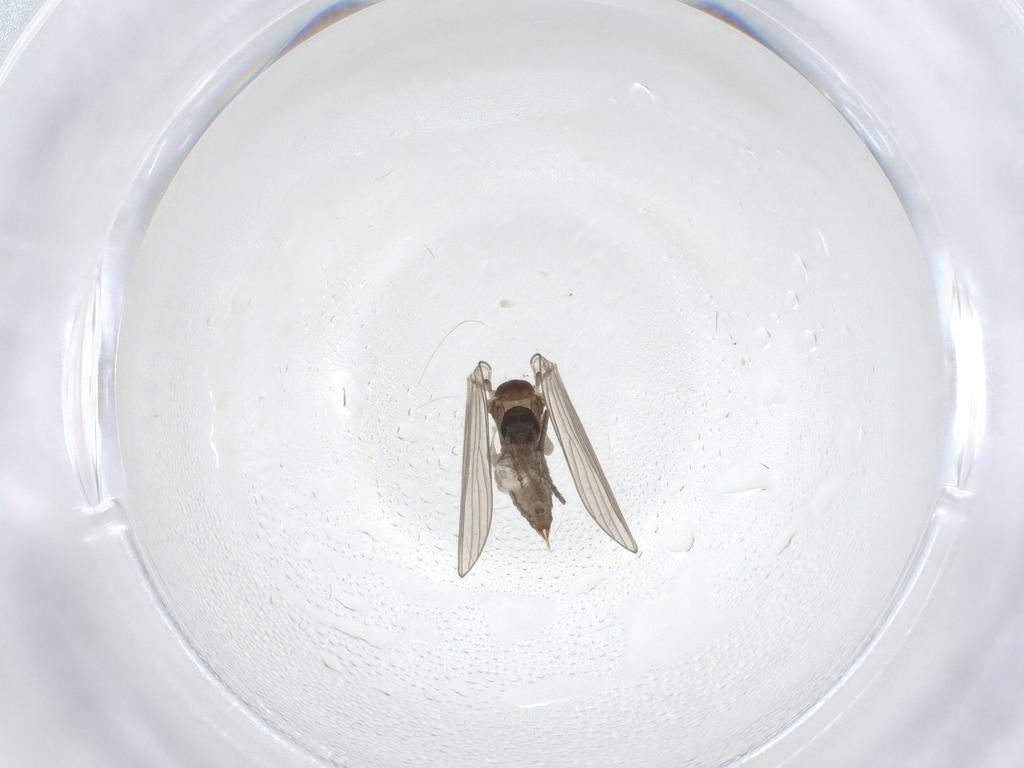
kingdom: Animalia
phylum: Arthropoda
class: Insecta
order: Diptera
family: Psychodidae
